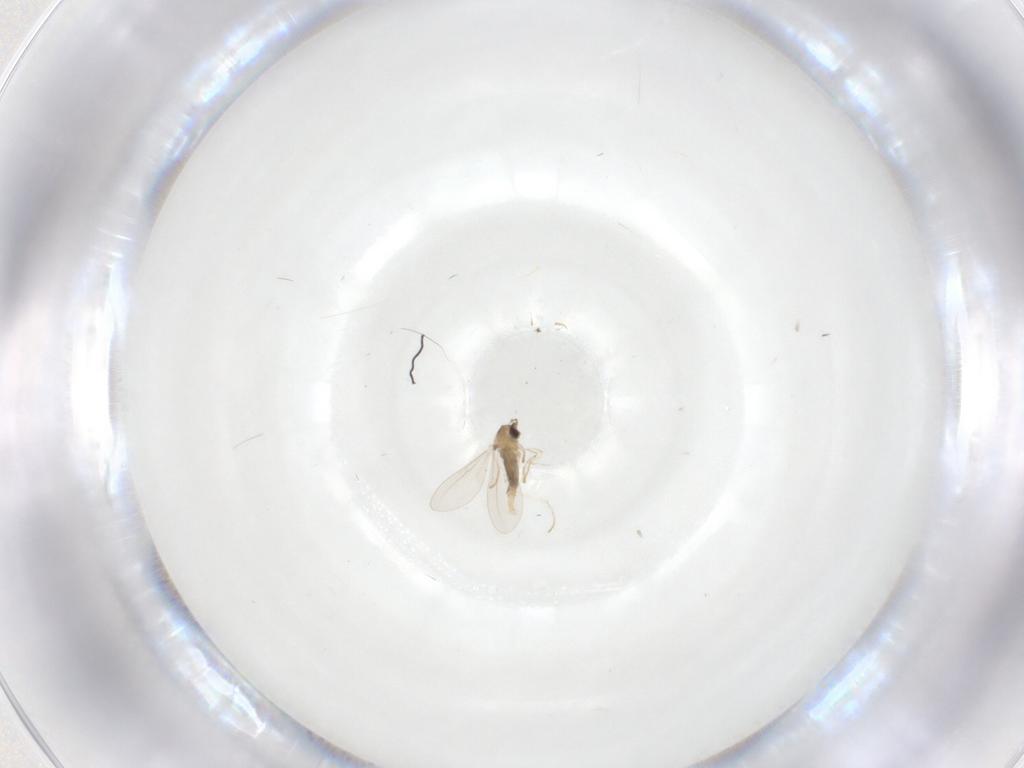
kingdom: Animalia
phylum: Arthropoda
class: Insecta
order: Diptera
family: Cecidomyiidae
